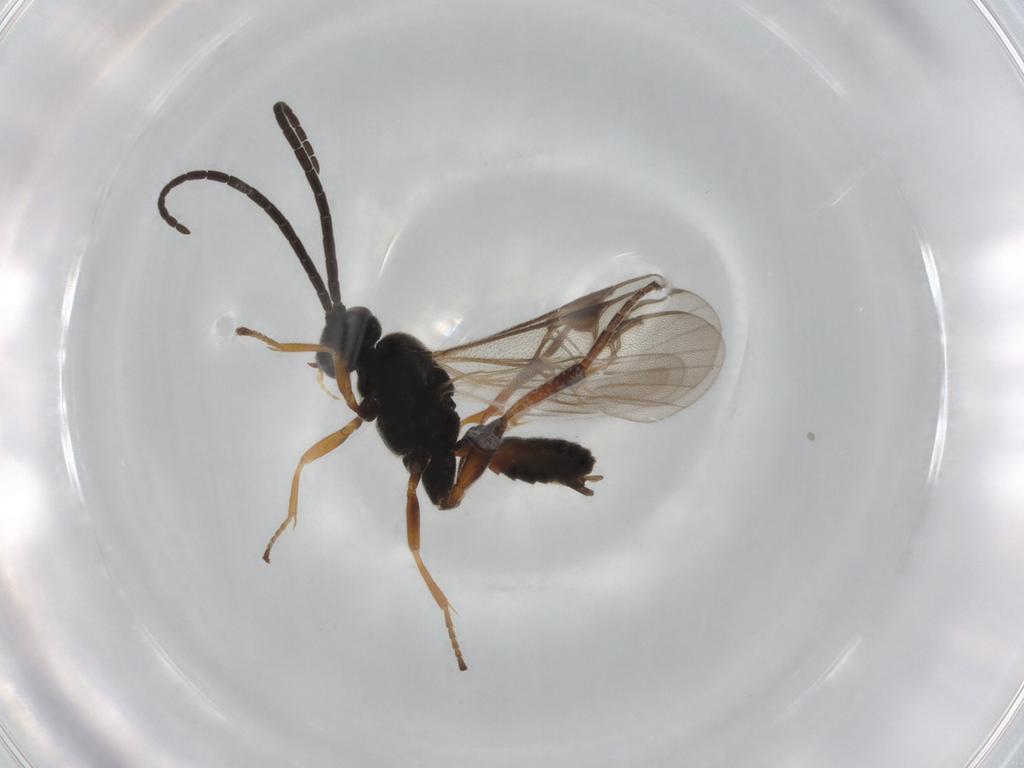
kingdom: Animalia
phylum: Arthropoda
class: Insecta
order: Hymenoptera
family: Braconidae
